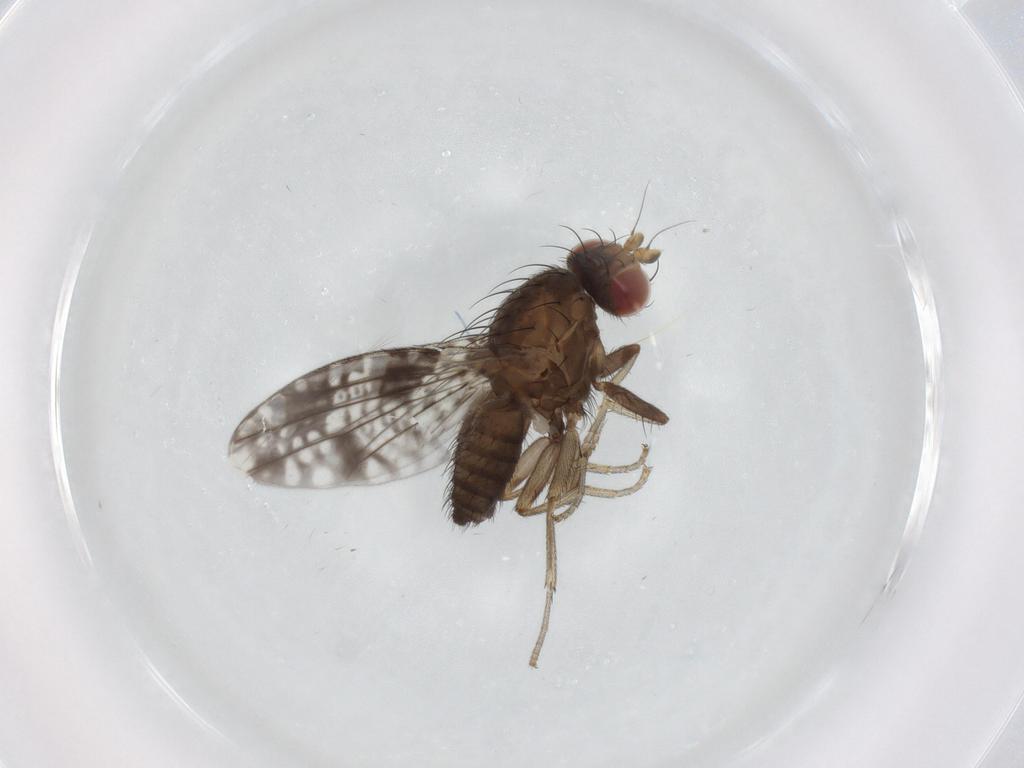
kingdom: Animalia
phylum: Arthropoda
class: Insecta
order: Diptera
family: Tephritidae
